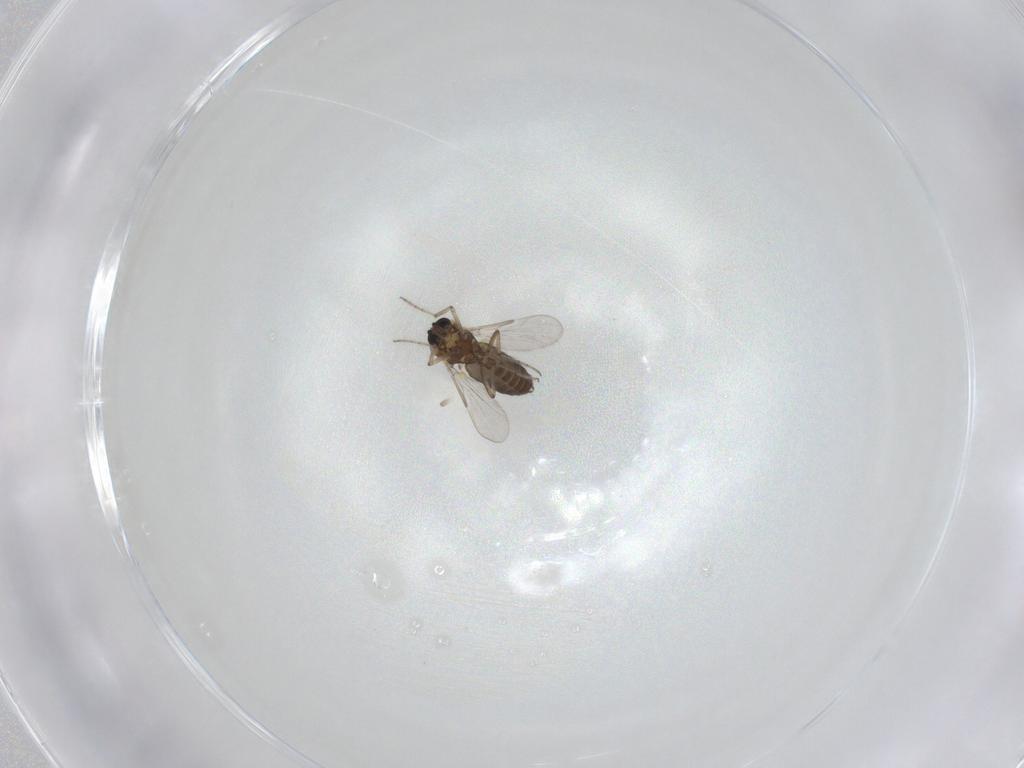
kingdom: Animalia
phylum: Arthropoda
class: Insecta
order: Diptera
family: Ceratopogonidae
